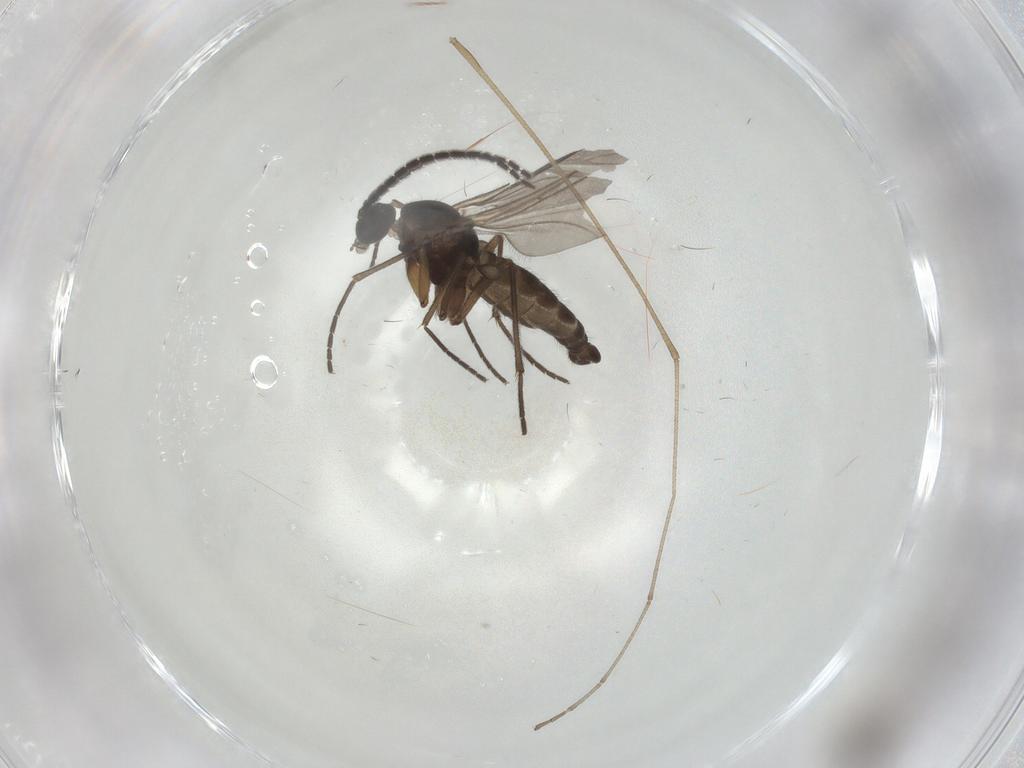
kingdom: Animalia
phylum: Arthropoda
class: Insecta
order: Diptera
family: Limoniidae
